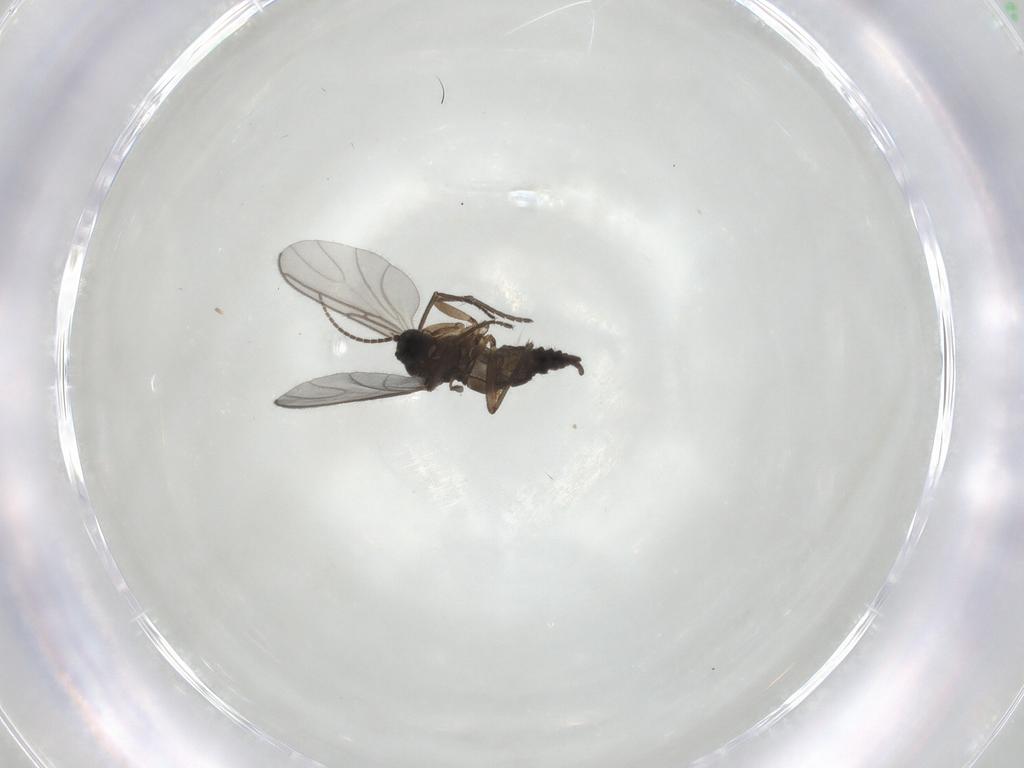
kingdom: Animalia
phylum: Arthropoda
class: Insecta
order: Diptera
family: Sciaridae
